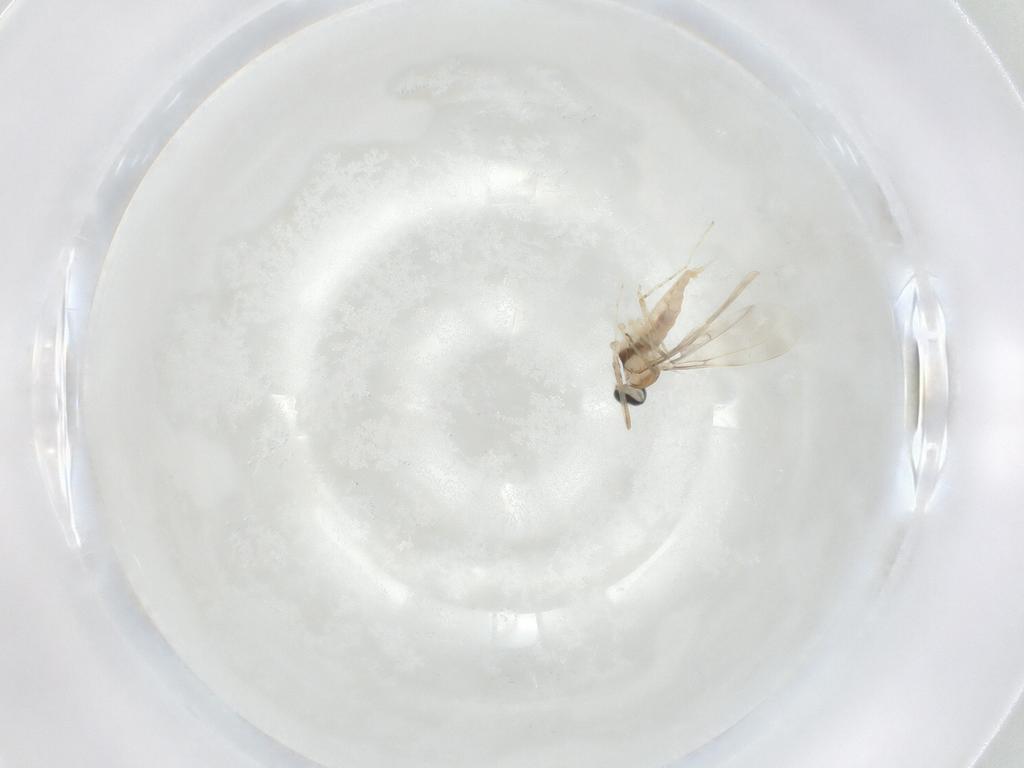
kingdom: Animalia
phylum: Arthropoda
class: Insecta
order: Diptera
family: Cecidomyiidae
